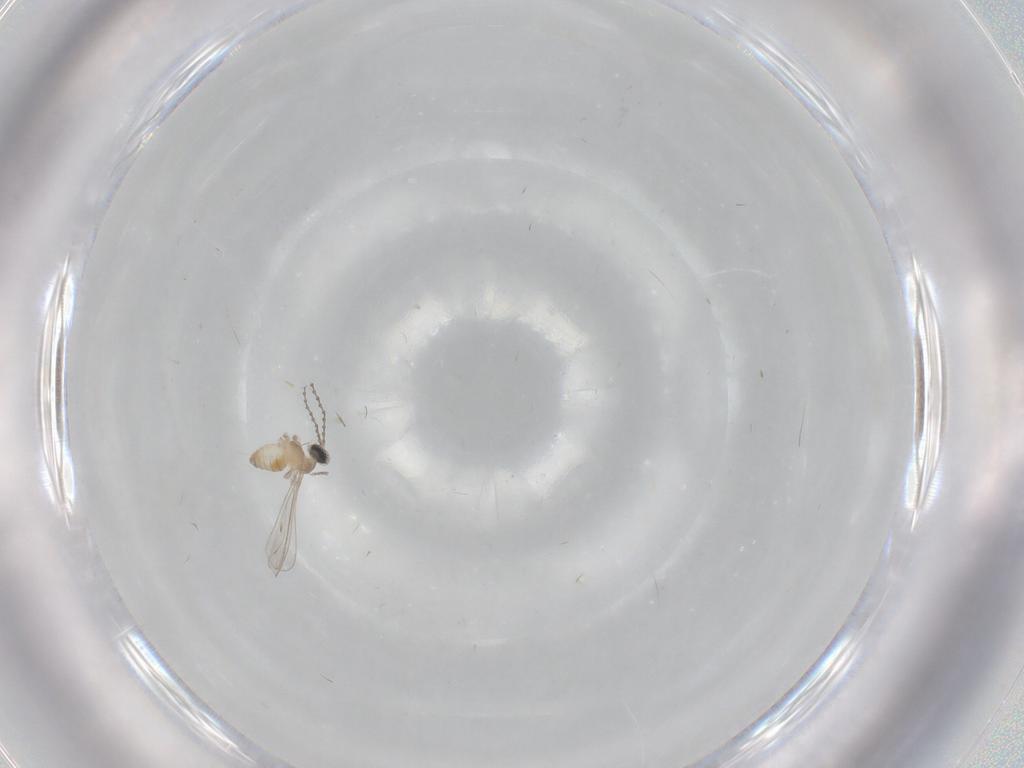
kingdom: Animalia
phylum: Arthropoda
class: Insecta
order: Diptera
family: Cecidomyiidae
